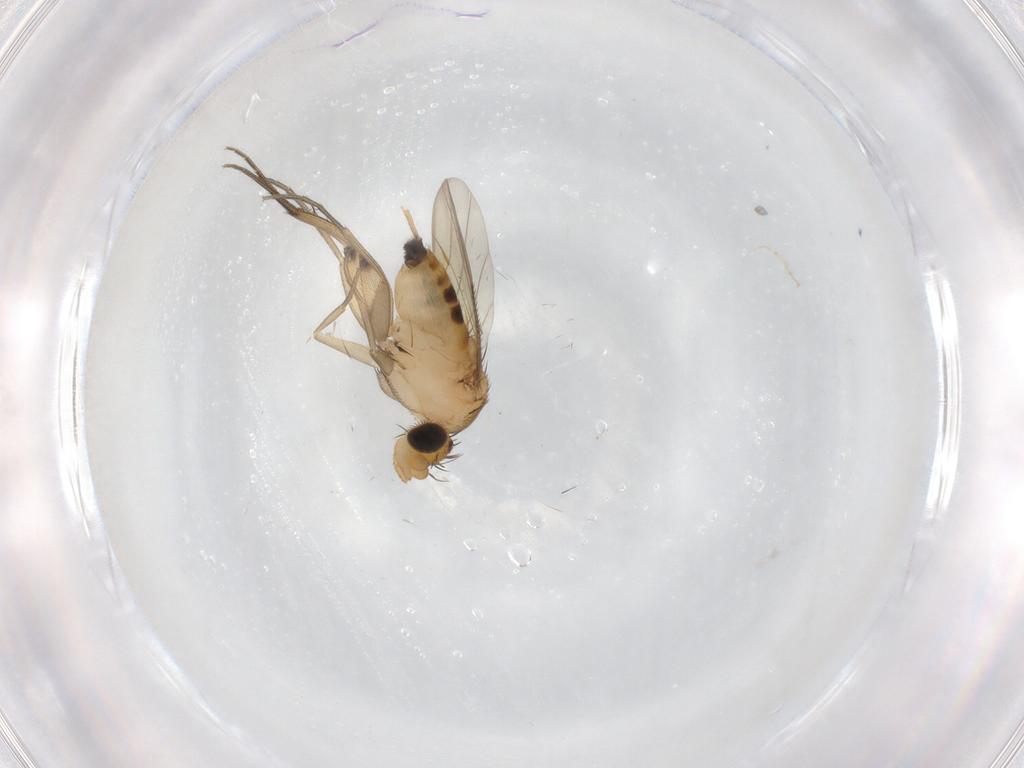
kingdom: Animalia
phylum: Arthropoda
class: Insecta
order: Diptera
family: Phoridae
